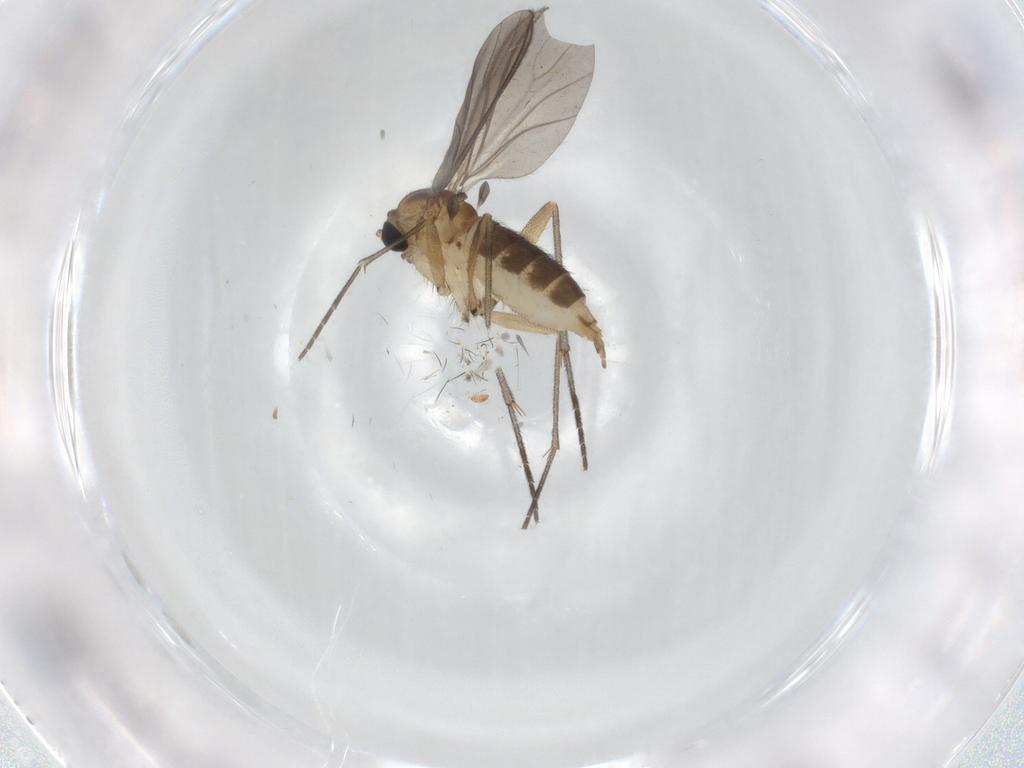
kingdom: Animalia
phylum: Arthropoda
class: Insecta
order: Diptera
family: Sciaridae
